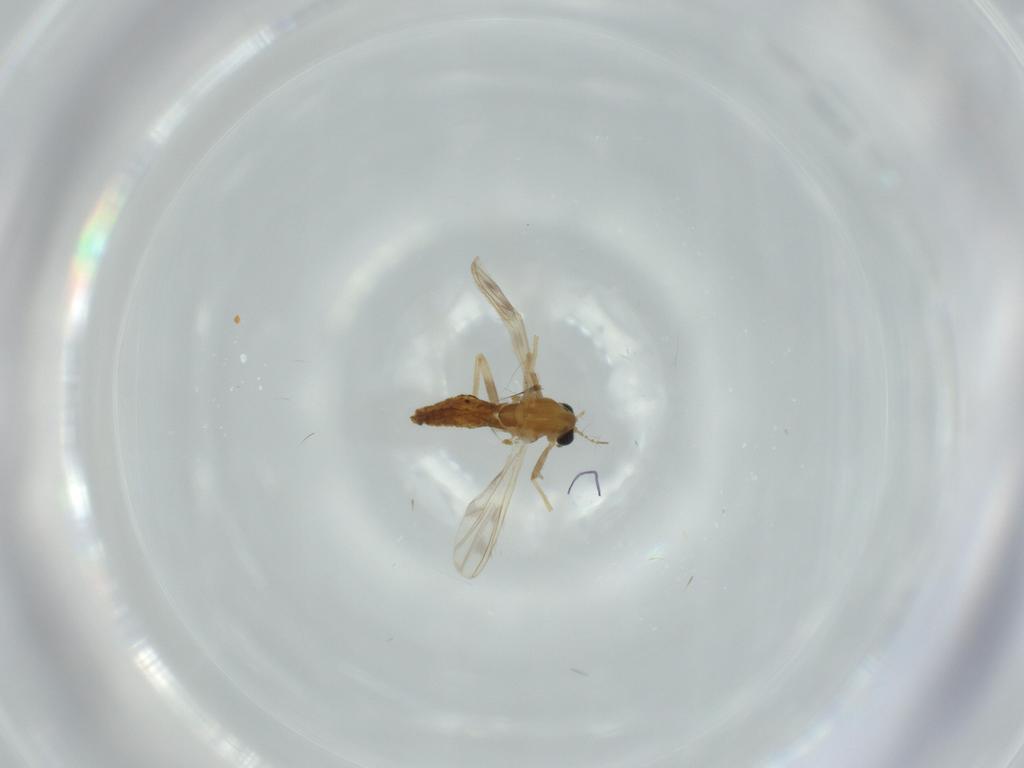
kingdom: Animalia
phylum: Arthropoda
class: Insecta
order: Diptera
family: Chironomidae
